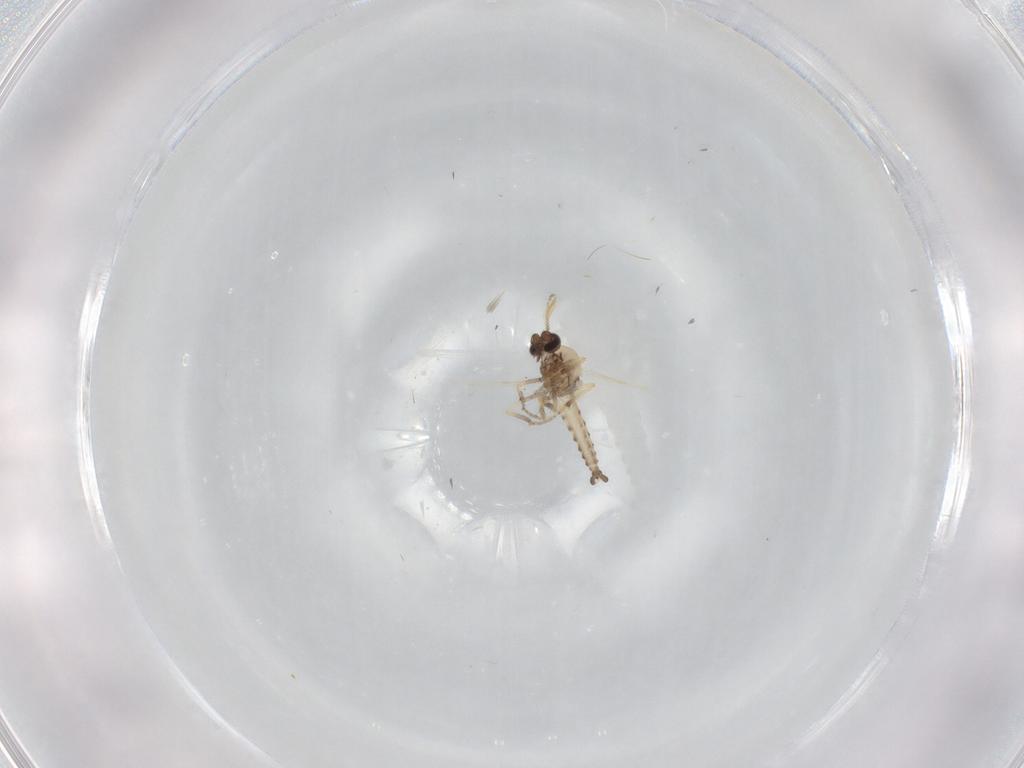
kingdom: Animalia
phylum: Arthropoda
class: Insecta
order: Diptera
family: Ceratopogonidae
